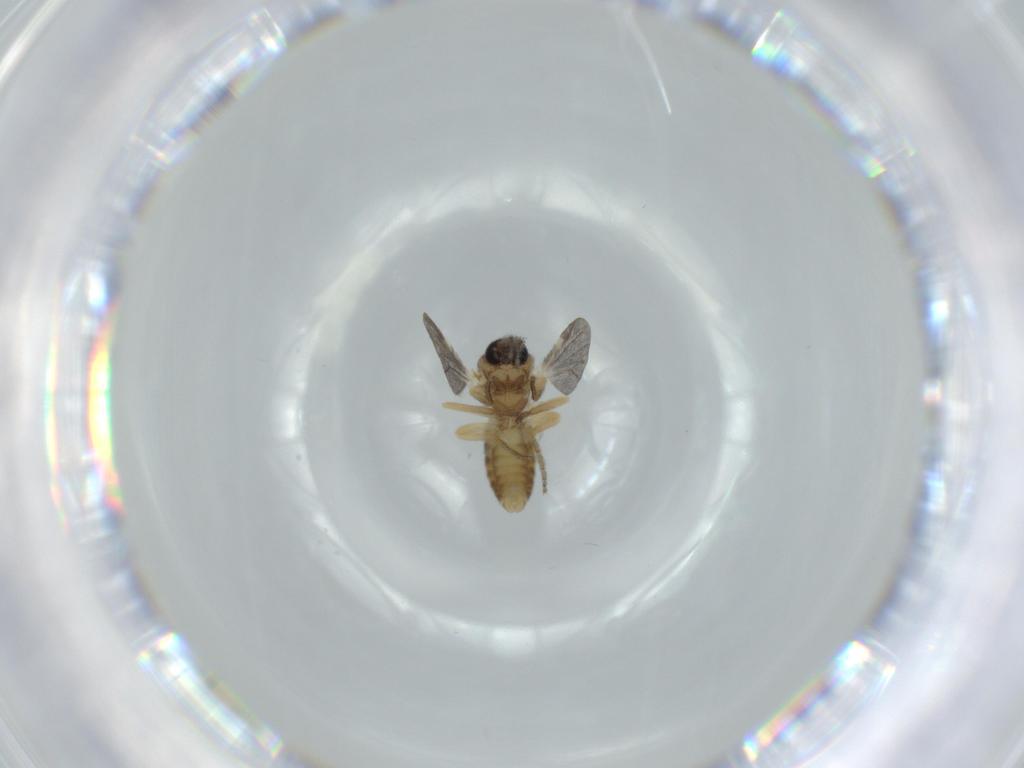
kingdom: Animalia
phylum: Arthropoda
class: Insecta
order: Diptera
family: Ceratopogonidae
